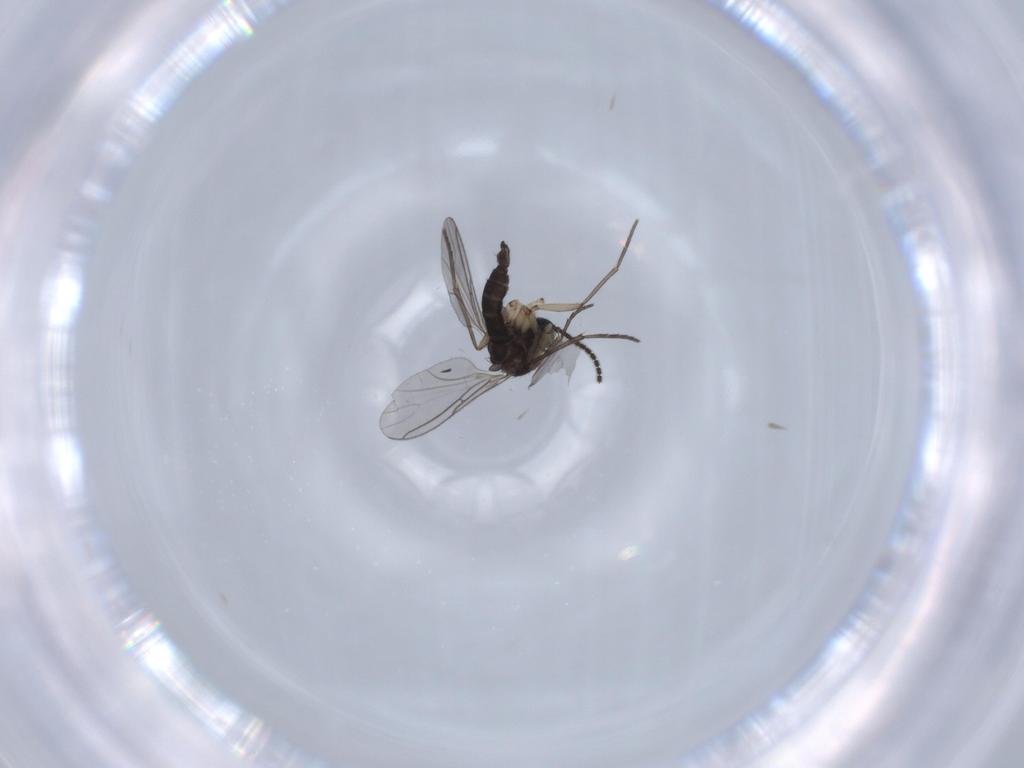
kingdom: Animalia
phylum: Arthropoda
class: Insecta
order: Diptera
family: Sciaridae
